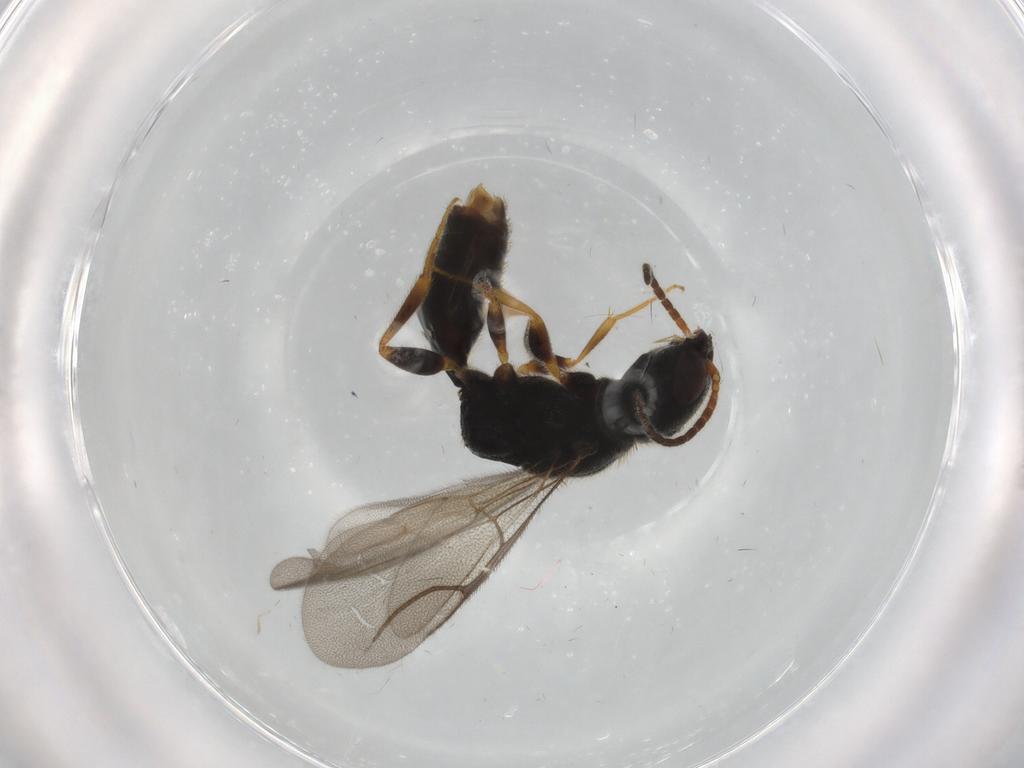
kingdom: Animalia
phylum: Arthropoda
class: Insecta
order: Hymenoptera
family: Bethylidae
